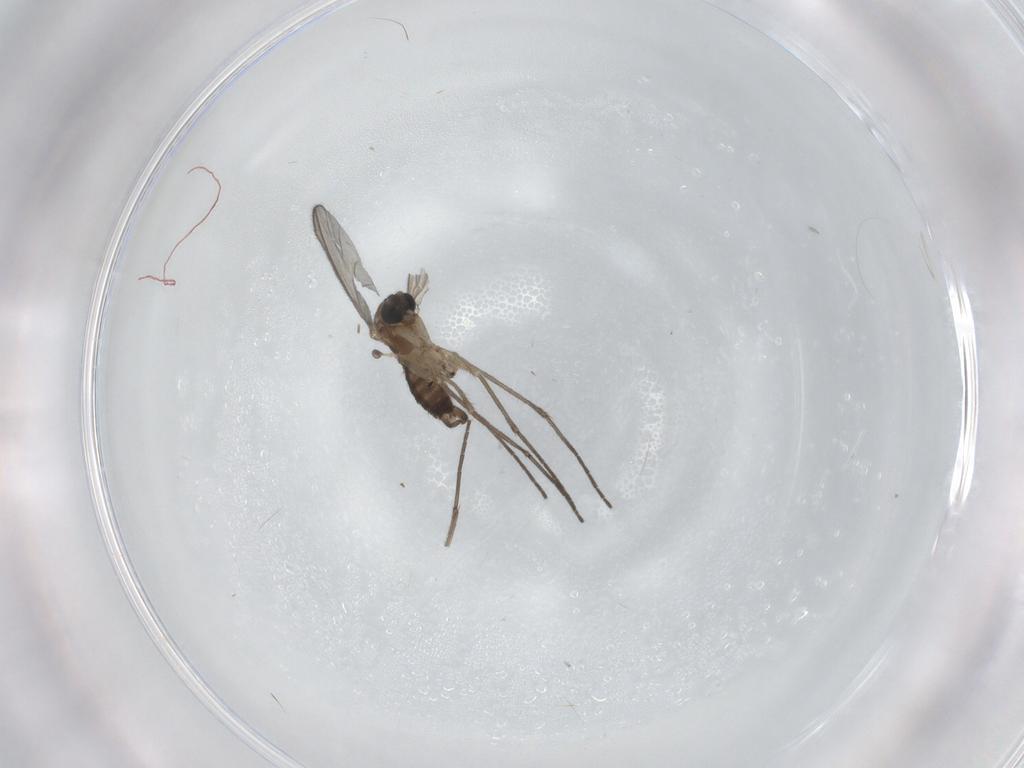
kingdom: Animalia
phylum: Arthropoda
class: Insecta
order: Diptera
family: Sciaridae
